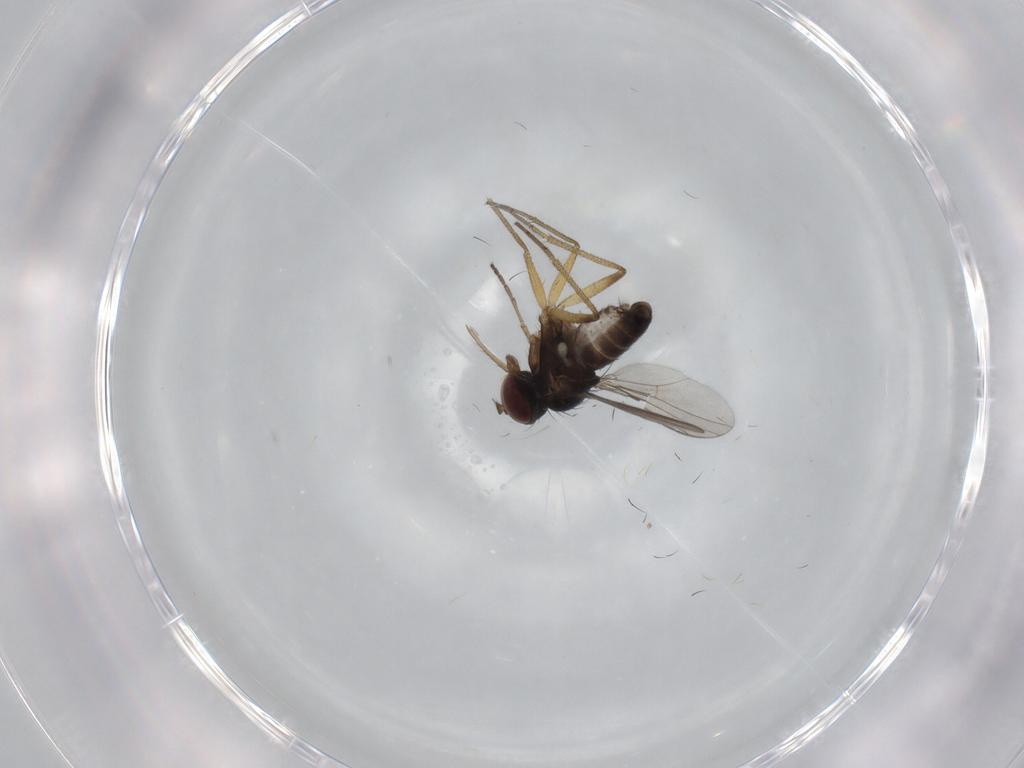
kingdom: Animalia
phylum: Arthropoda
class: Insecta
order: Diptera
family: Dolichopodidae
